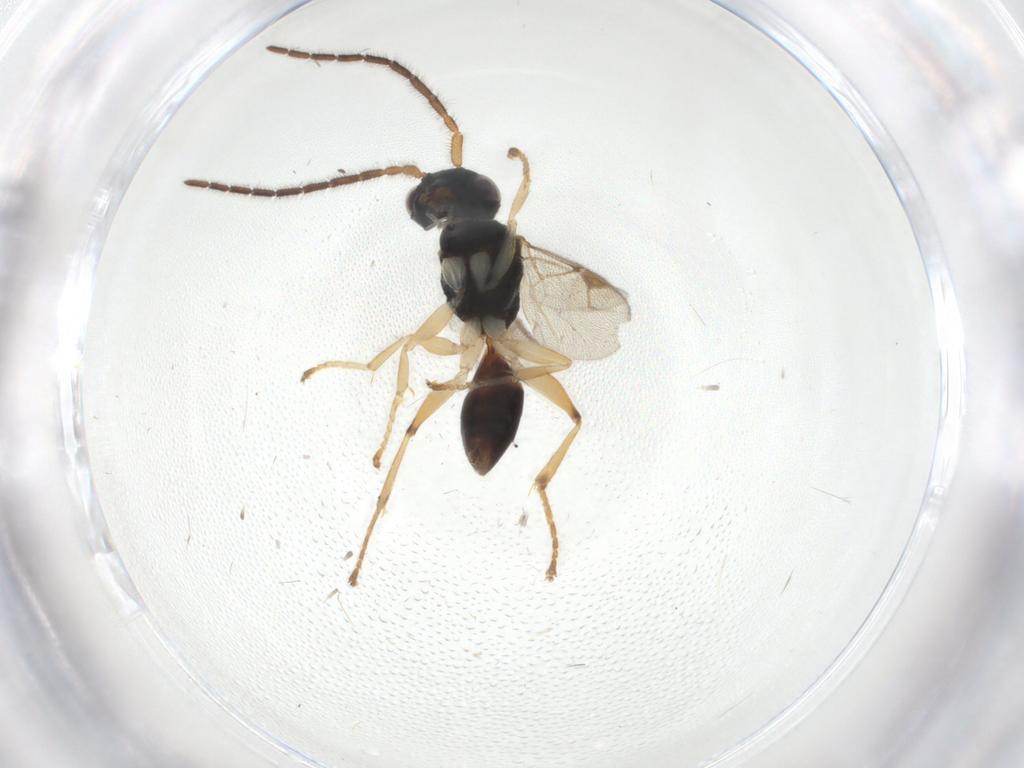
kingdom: Animalia
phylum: Arthropoda
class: Insecta
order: Hymenoptera
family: Dryinidae
